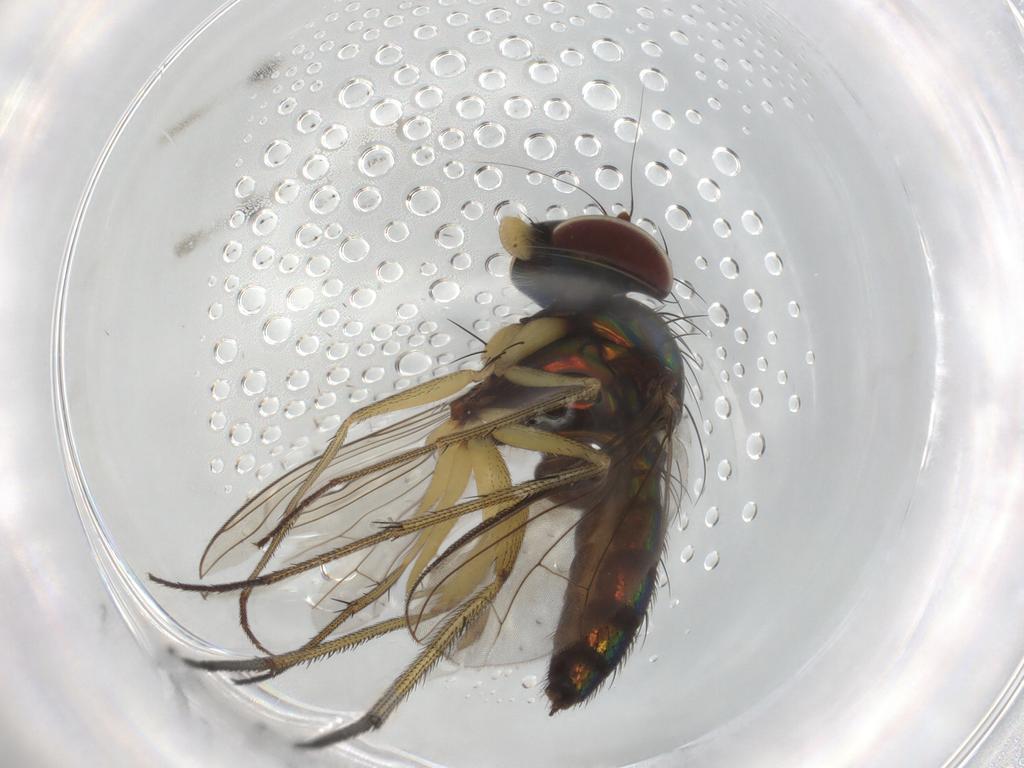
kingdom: Animalia
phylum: Arthropoda
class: Insecta
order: Diptera
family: Dolichopodidae
